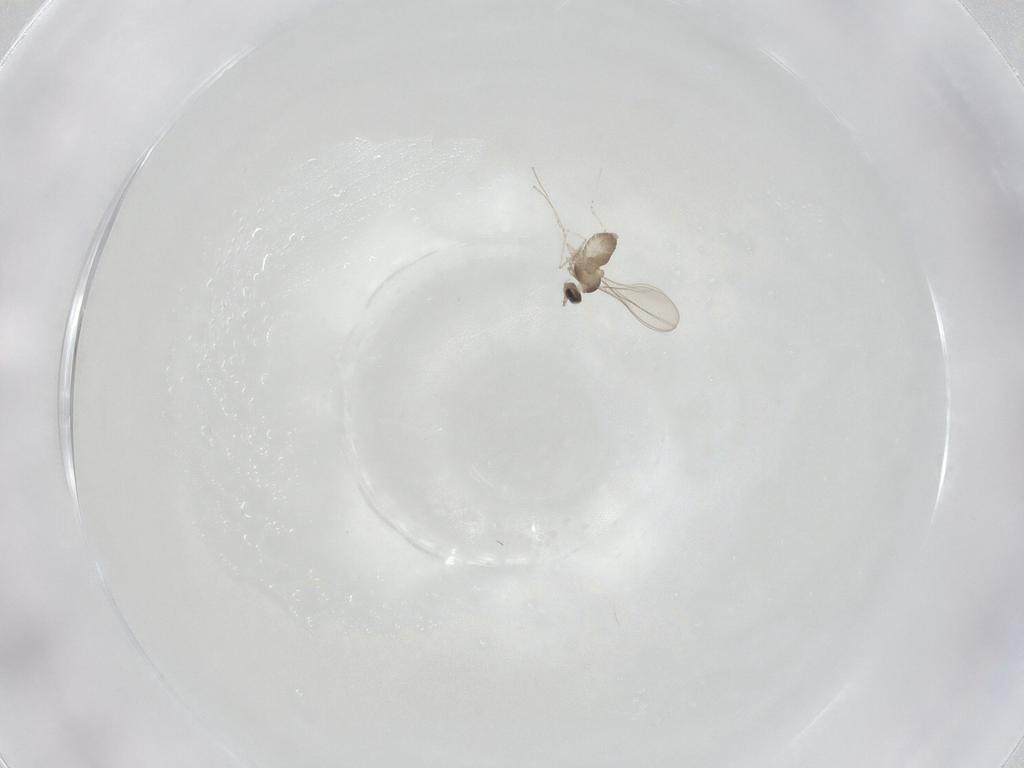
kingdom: Animalia
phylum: Arthropoda
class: Insecta
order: Diptera
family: Cecidomyiidae
